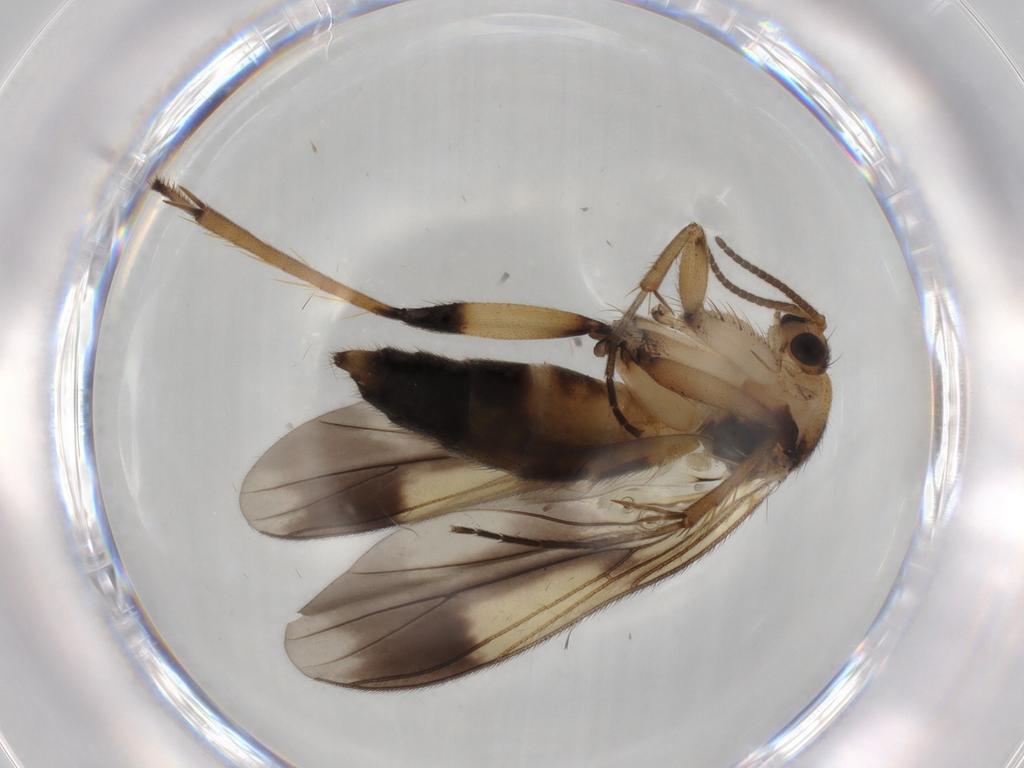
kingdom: Animalia
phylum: Arthropoda
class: Insecta
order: Diptera
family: Mycetophilidae
